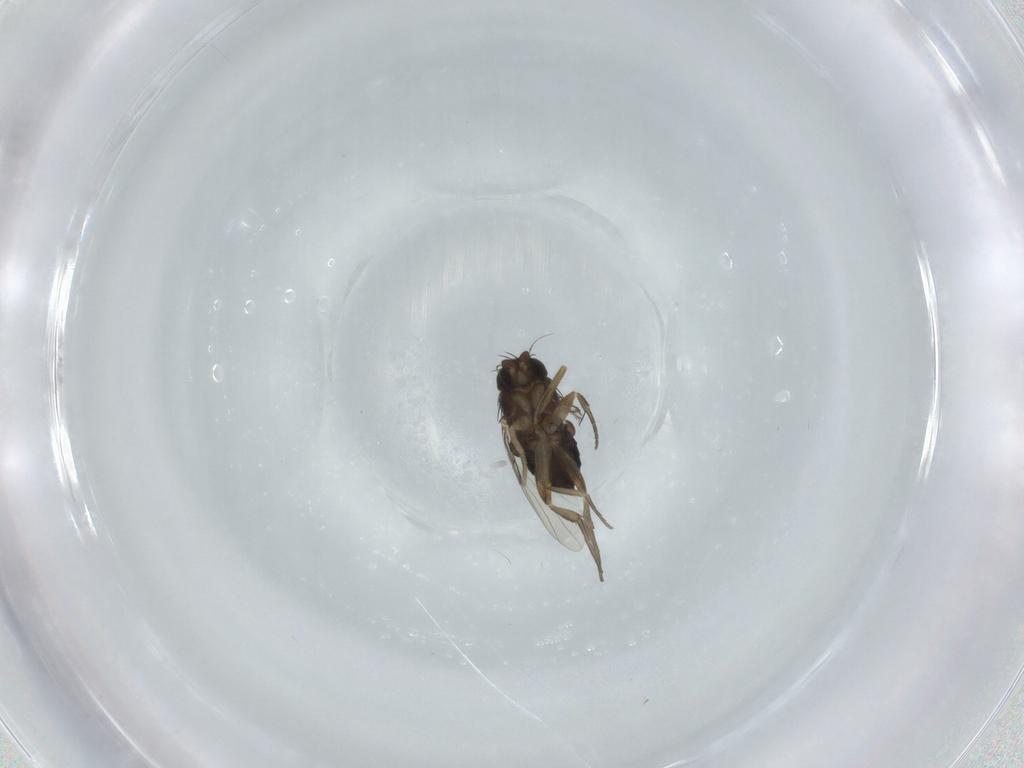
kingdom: Animalia
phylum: Arthropoda
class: Insecta
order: Diptera
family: Phoridae
